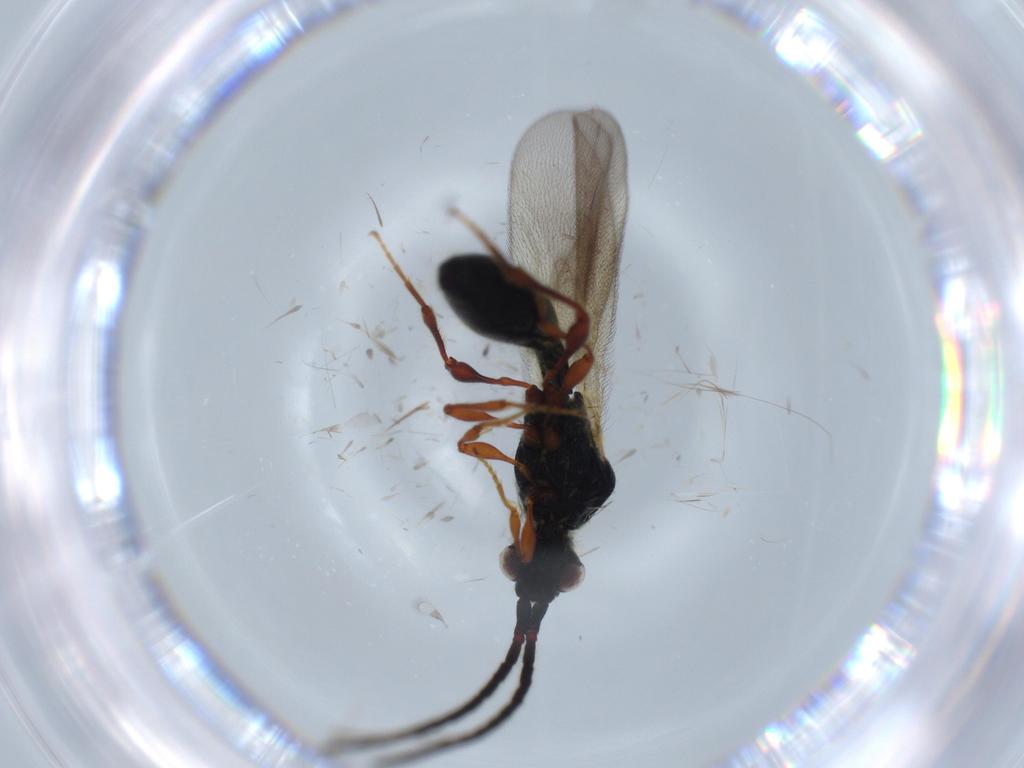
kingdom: Animalia
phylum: Arthropoda
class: Insecta
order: Hymenoptera
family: Diapriidae
